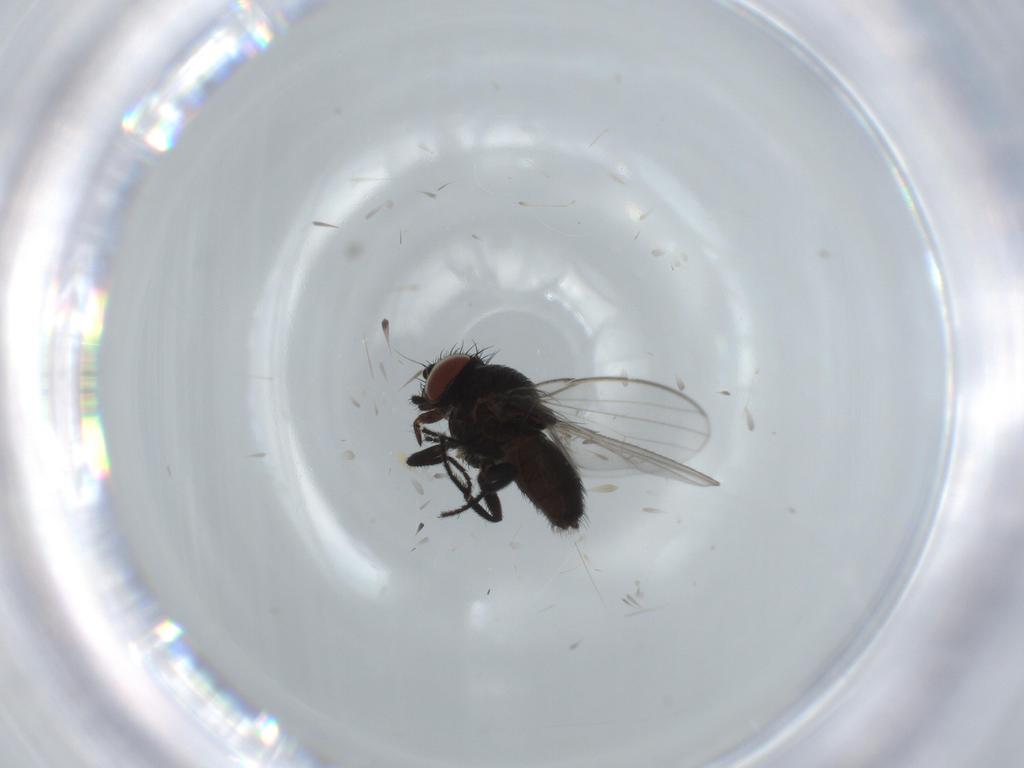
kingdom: Animalia
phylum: Arthropoda
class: Insecta
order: Diptera
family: Milichiidae
